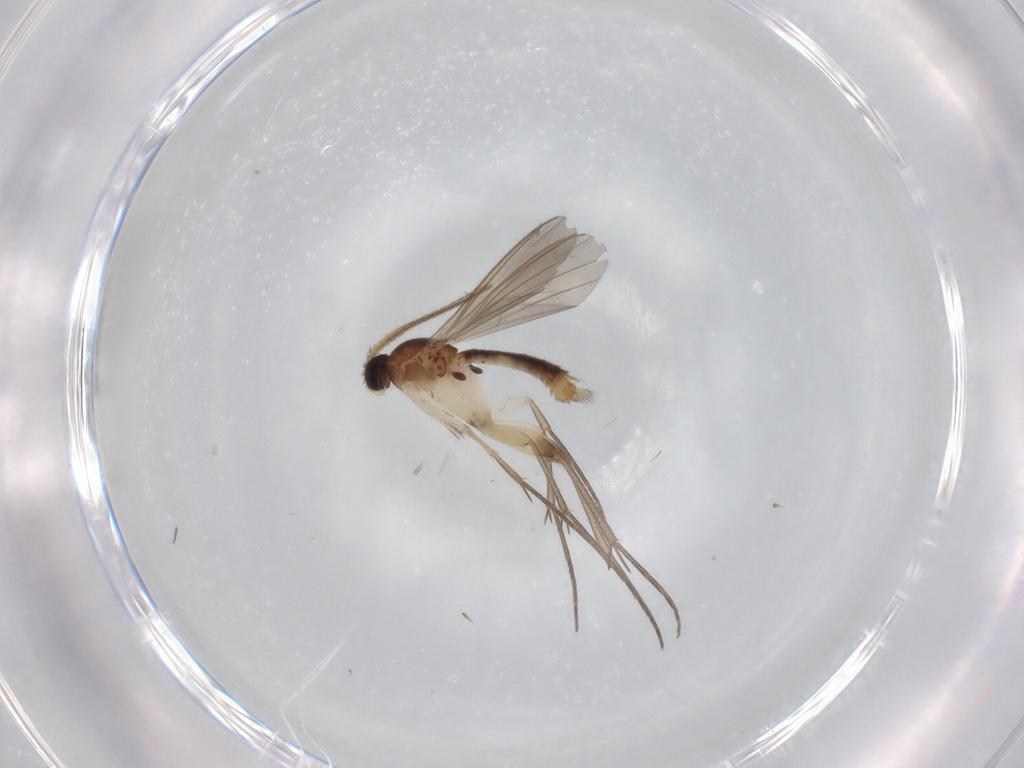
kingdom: Animalia
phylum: Arthropoda
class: Insecta
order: Diptera
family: Mycetophilidae
